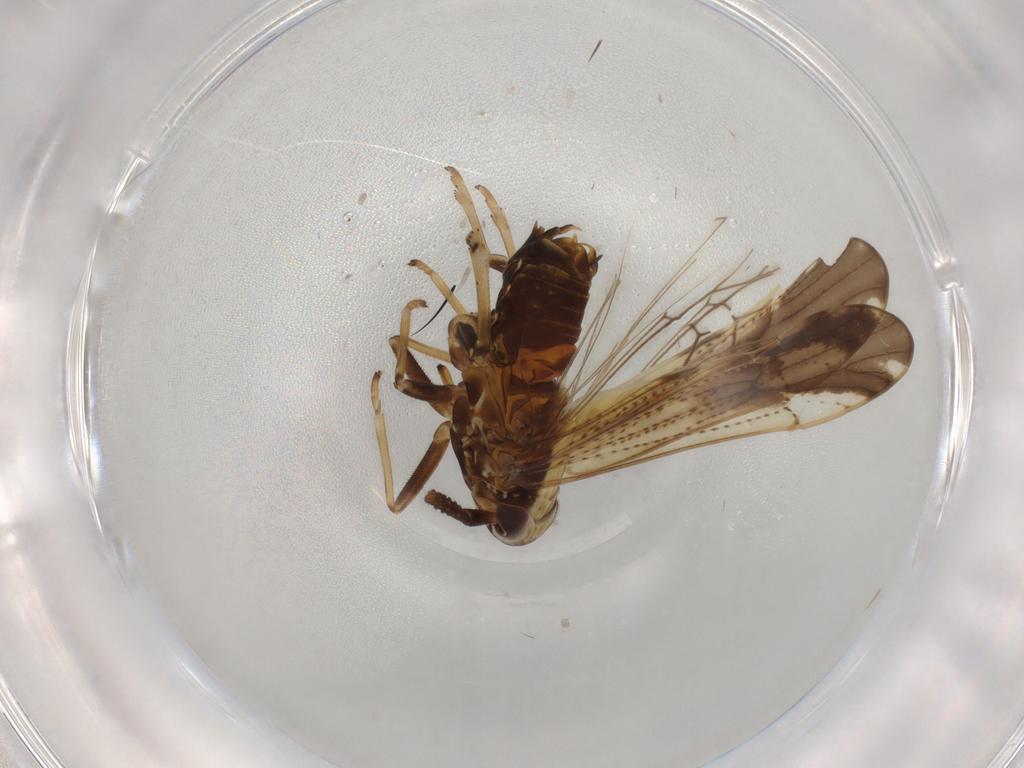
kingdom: Animalia
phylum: Arthropoda
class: Insecta
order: Hemiptera
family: Delphacidae
